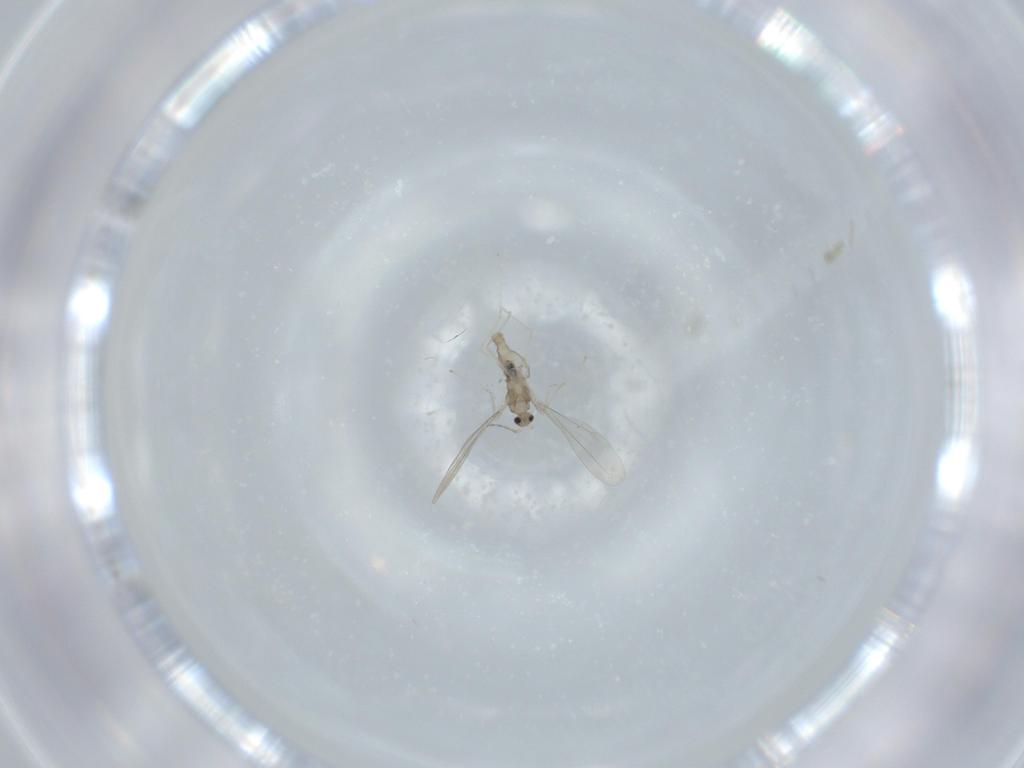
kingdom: Animalia
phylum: Arthropoda
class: Insecta
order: Diptera
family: Cecidomyiidae
